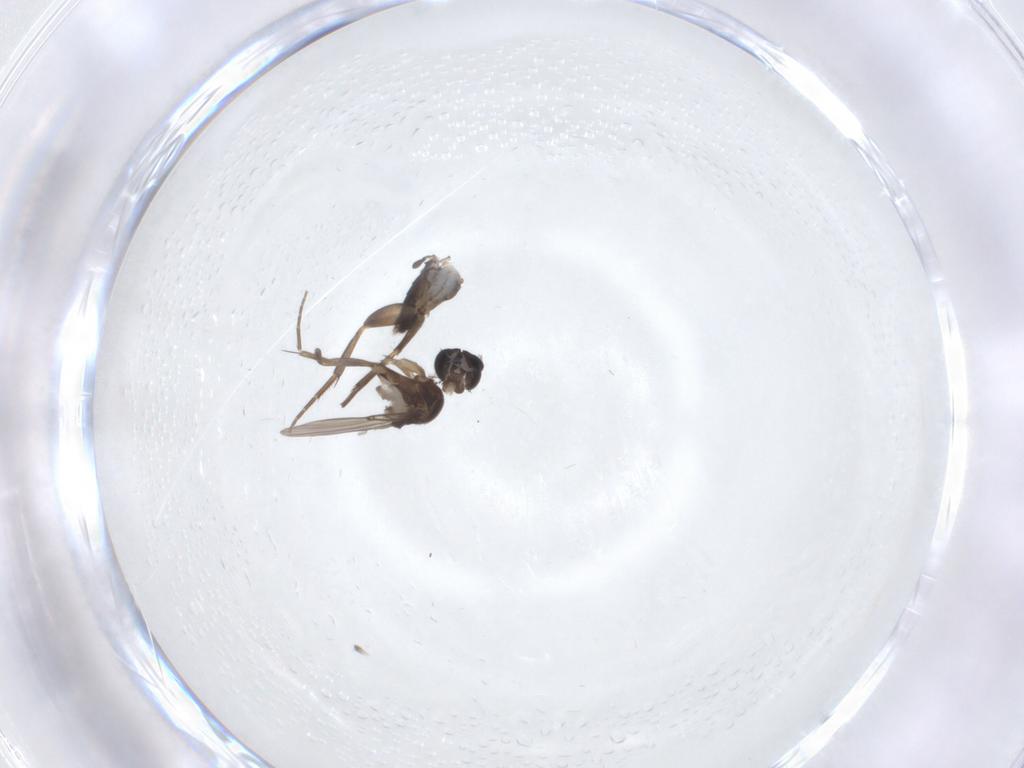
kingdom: Animalia
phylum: Arthropoda
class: Insecta
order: Diptera
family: Phoridae
